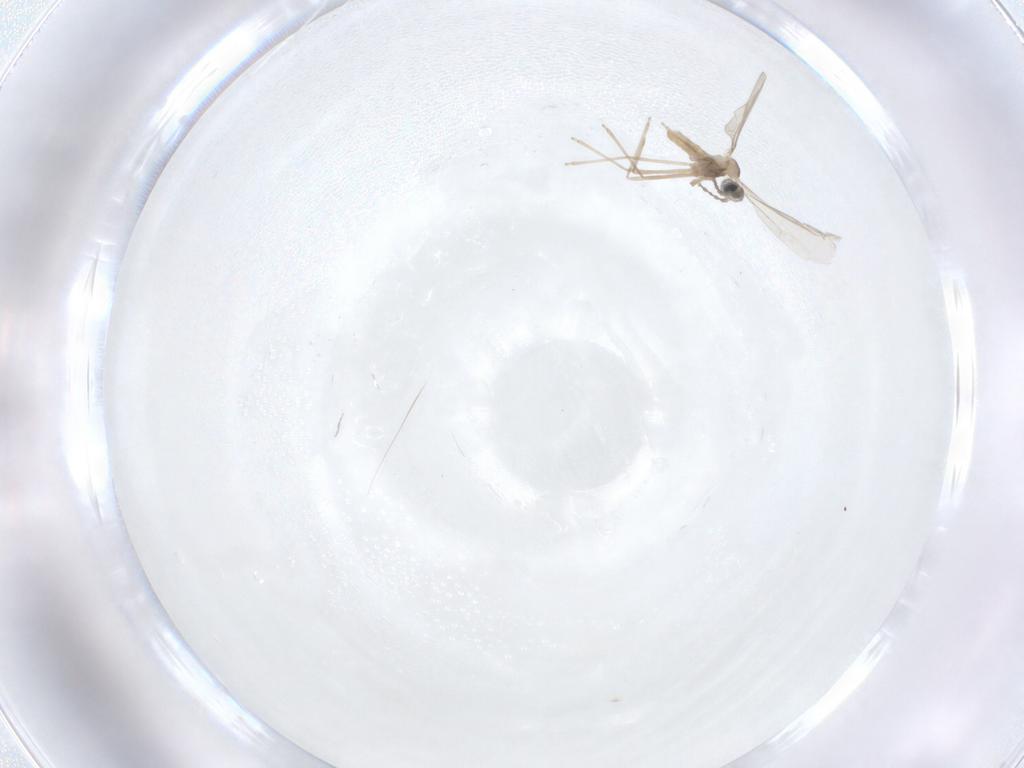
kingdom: Animalia
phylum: Arthropoda
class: Insecta
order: Diptera
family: Cecidomyiidae
